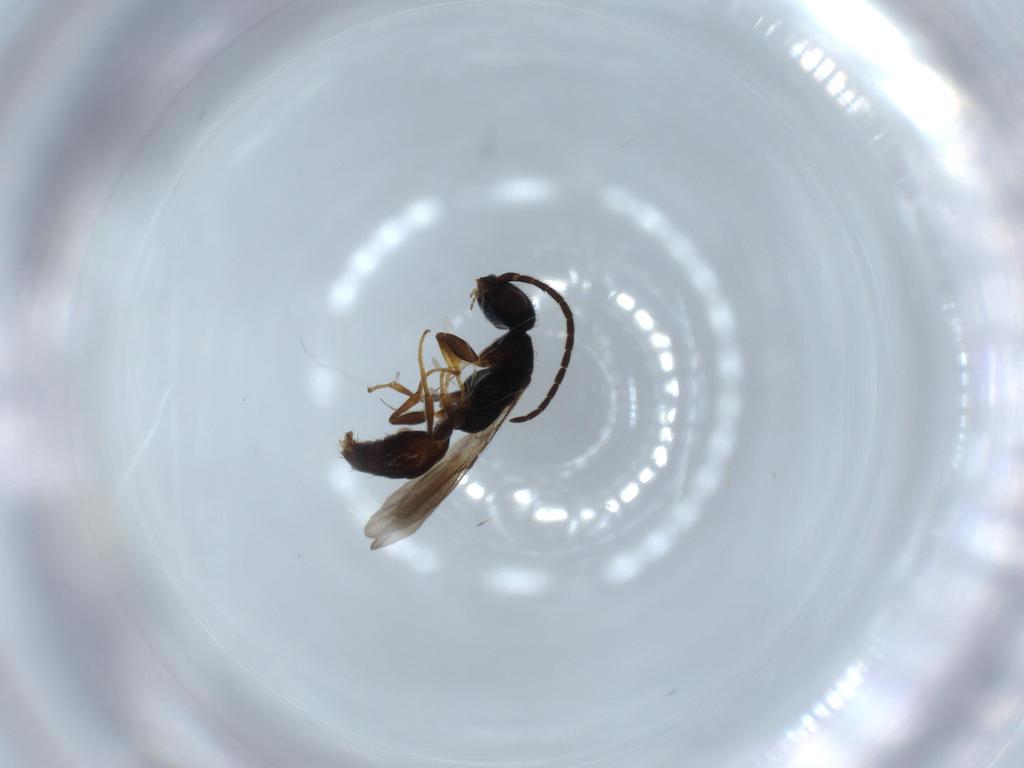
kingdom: Animalia
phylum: Arthropoda
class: Insecta
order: Hymenoptera
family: Bethylidae
